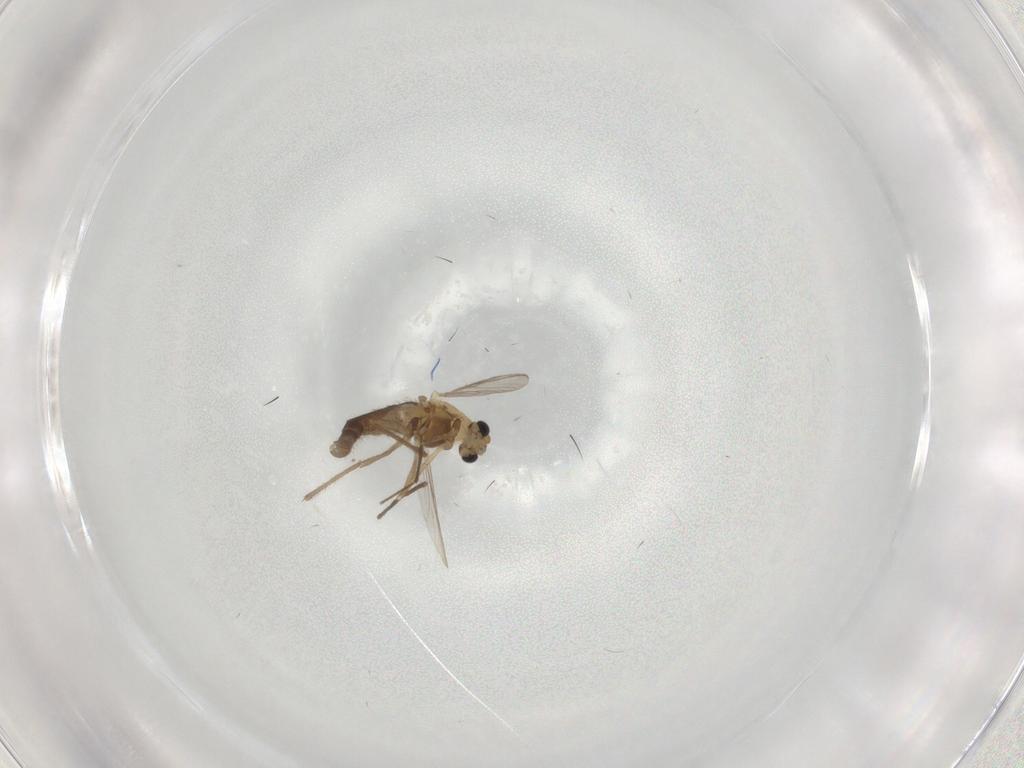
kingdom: Animalia
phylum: Arthropoda
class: Insecta
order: Diptera
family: Chironomidae
